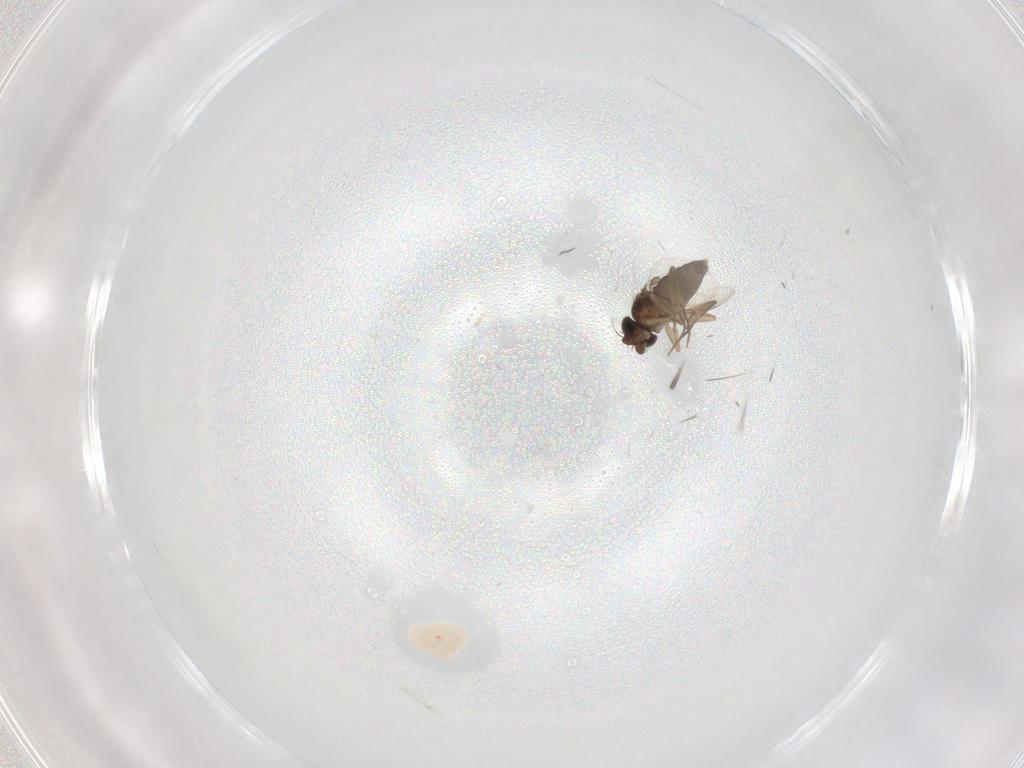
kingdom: Animalia
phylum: Arthropoda
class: Insecta
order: Diptera
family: Phoridae
